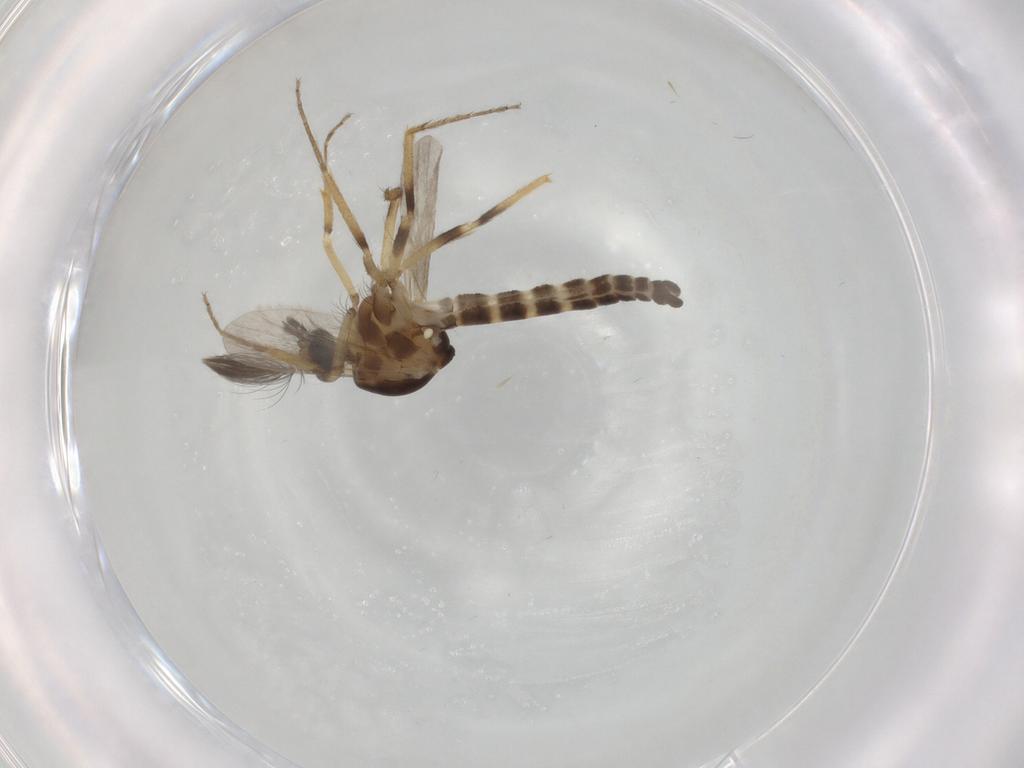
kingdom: Animalia
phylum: Arthropoda
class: Insecta
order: Diptera
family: Ceratopogonidae
